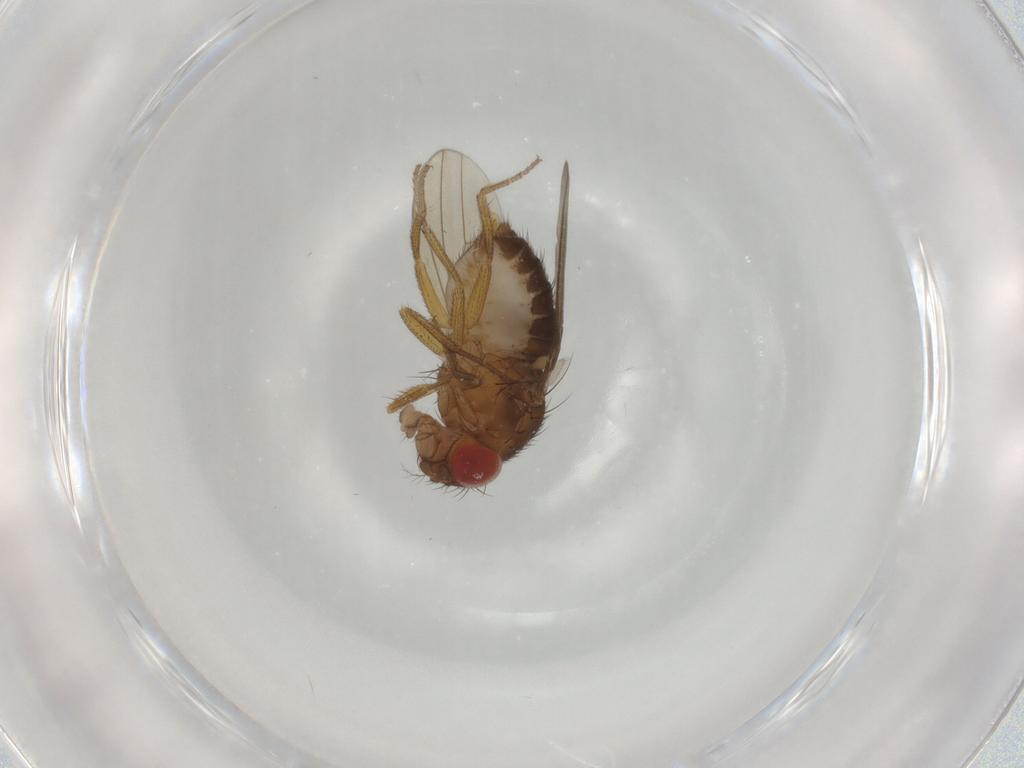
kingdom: Animalia
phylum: Arthropoda
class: Insecta
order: Diptera
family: Drosophilidae
